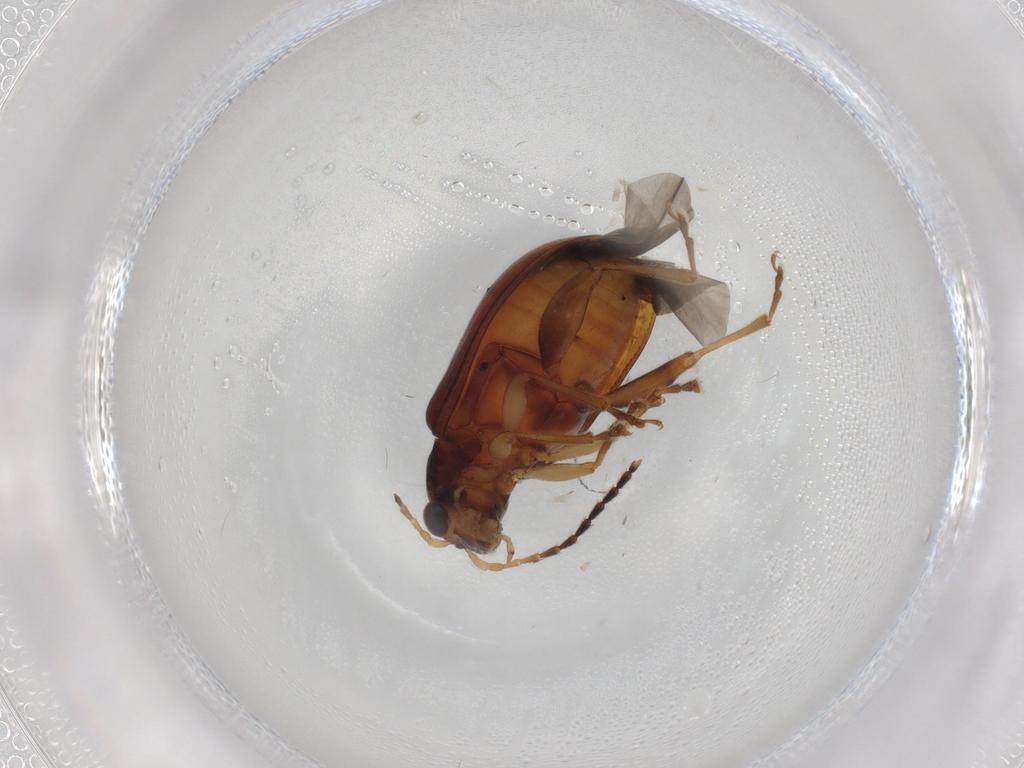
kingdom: Animalia
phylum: Arthropoda
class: Insecta
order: Coleoptera
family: Chrysomelidae
